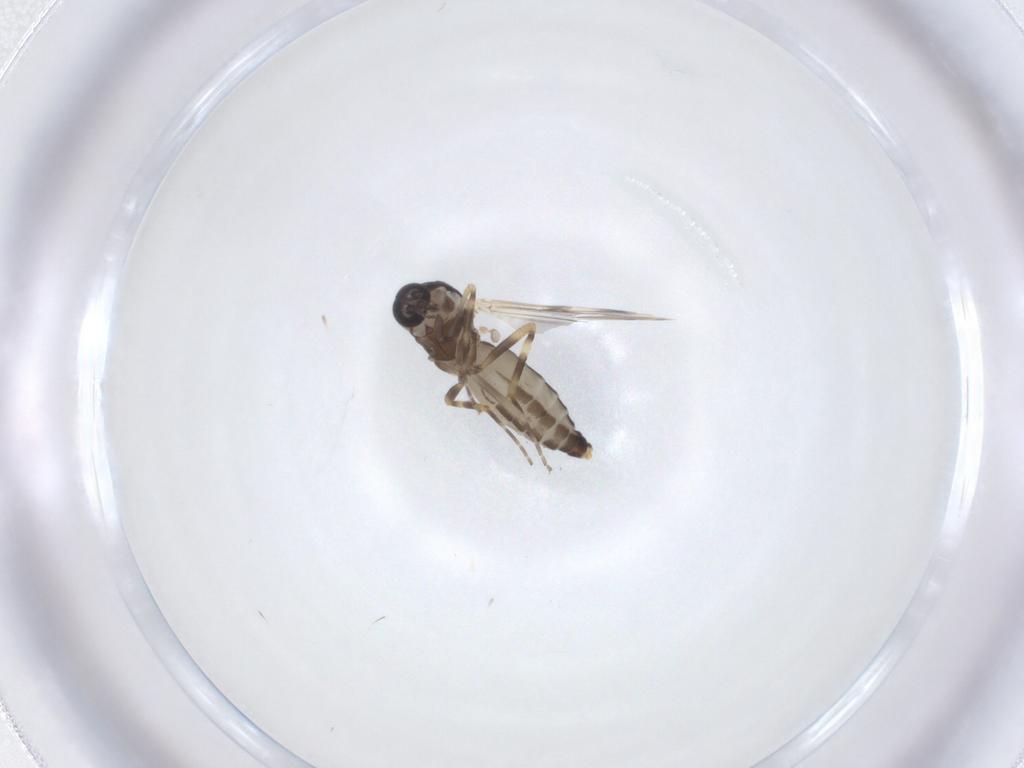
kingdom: Animalia
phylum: Arthropoda
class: Insecta
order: Diptera
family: Ceratopogonidae
